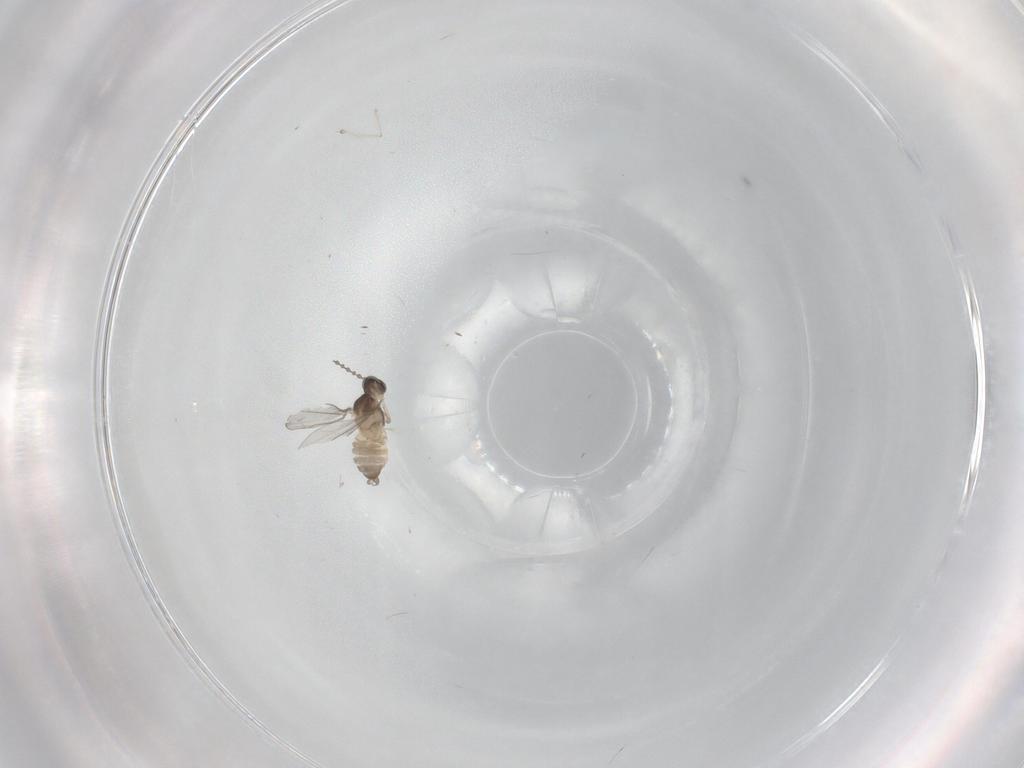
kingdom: Animalia
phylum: Arthropoda
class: Insecta
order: Diptera
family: Cecidomyiidae
